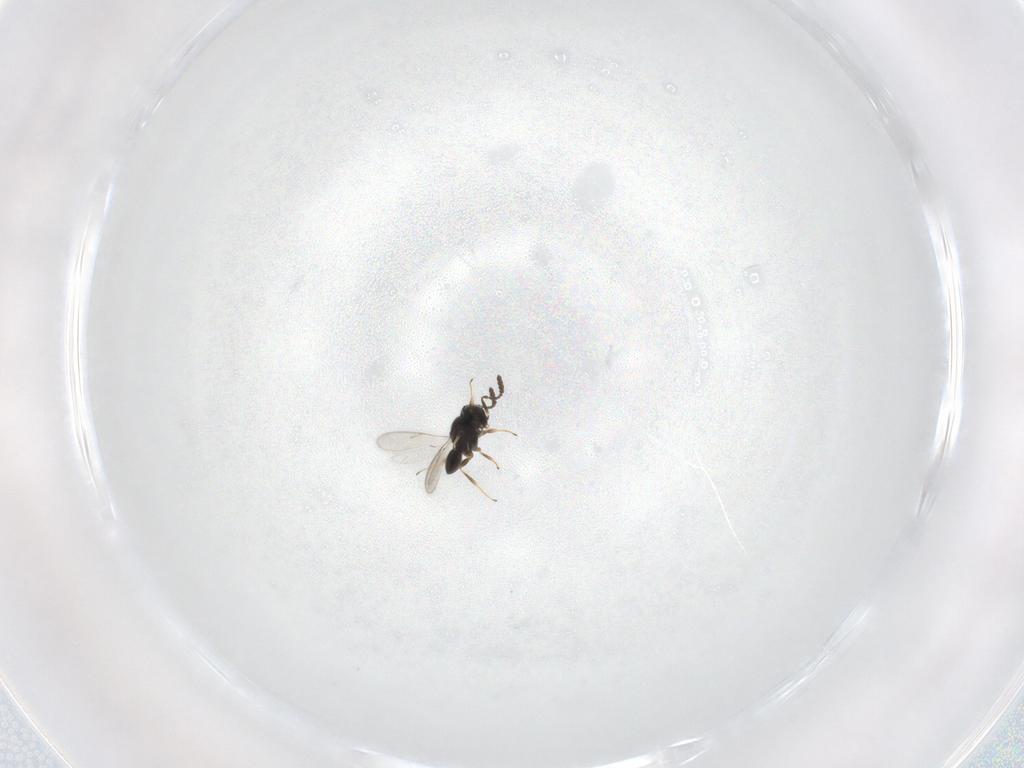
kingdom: Animalia
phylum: Arthropoda
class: Insecta
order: Hymenoptera
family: Scelionidae
